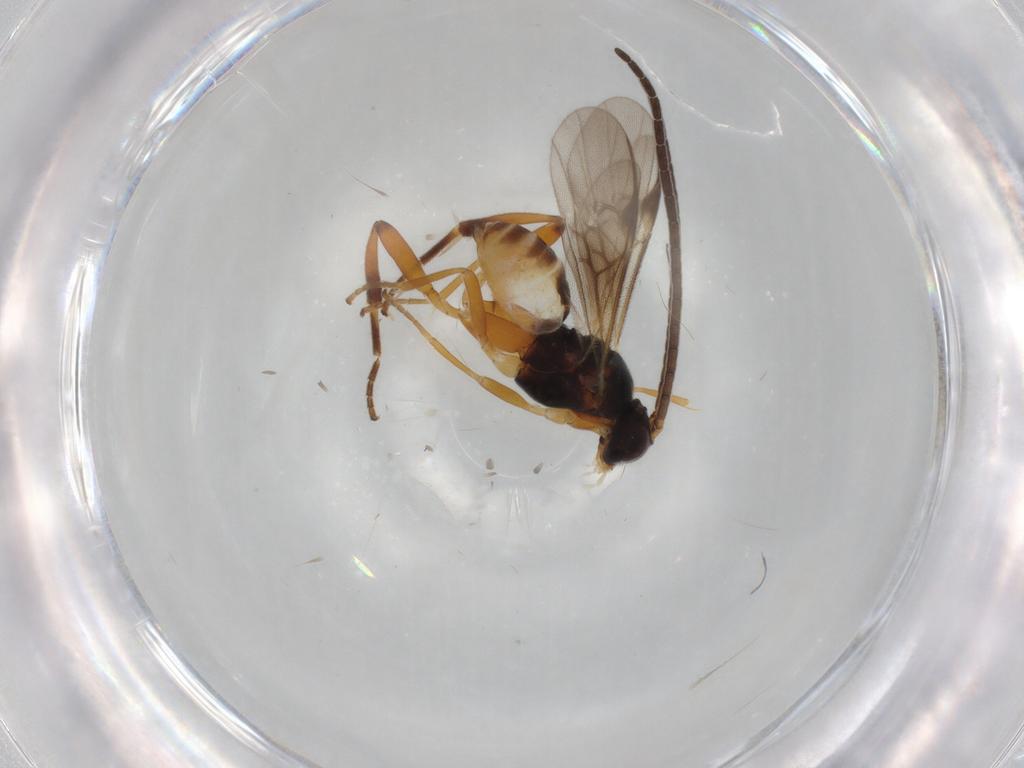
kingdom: Animalia
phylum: Arthropoda
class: Insecta
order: Hymenoptera
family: Braconidae
